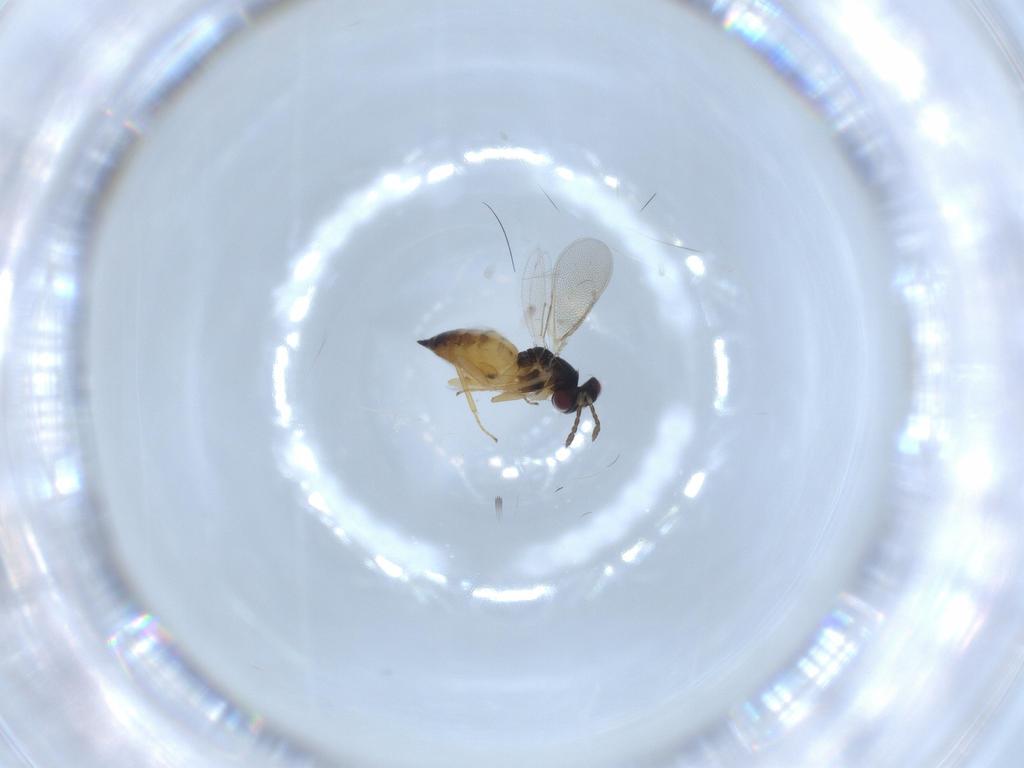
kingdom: Animalia
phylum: Arthropoda
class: Insecta
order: Hymenoptera
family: Eulophidae
